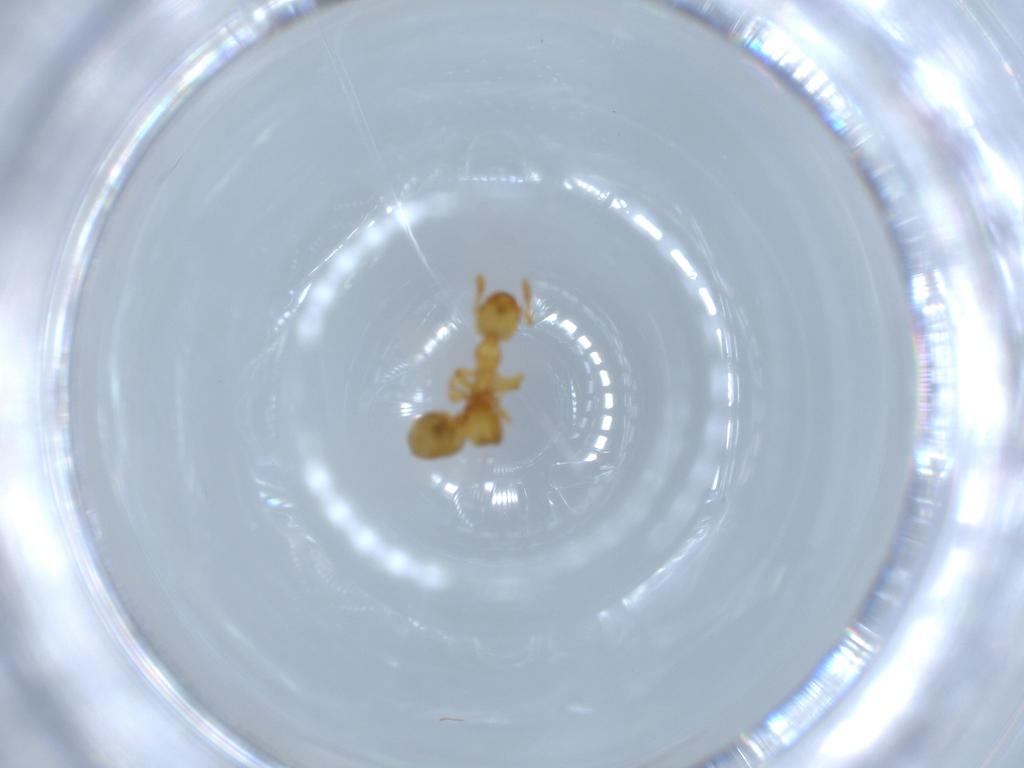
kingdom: Animalia
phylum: Arthropoda
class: Insecta
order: Hymenoptera
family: Formicidae
